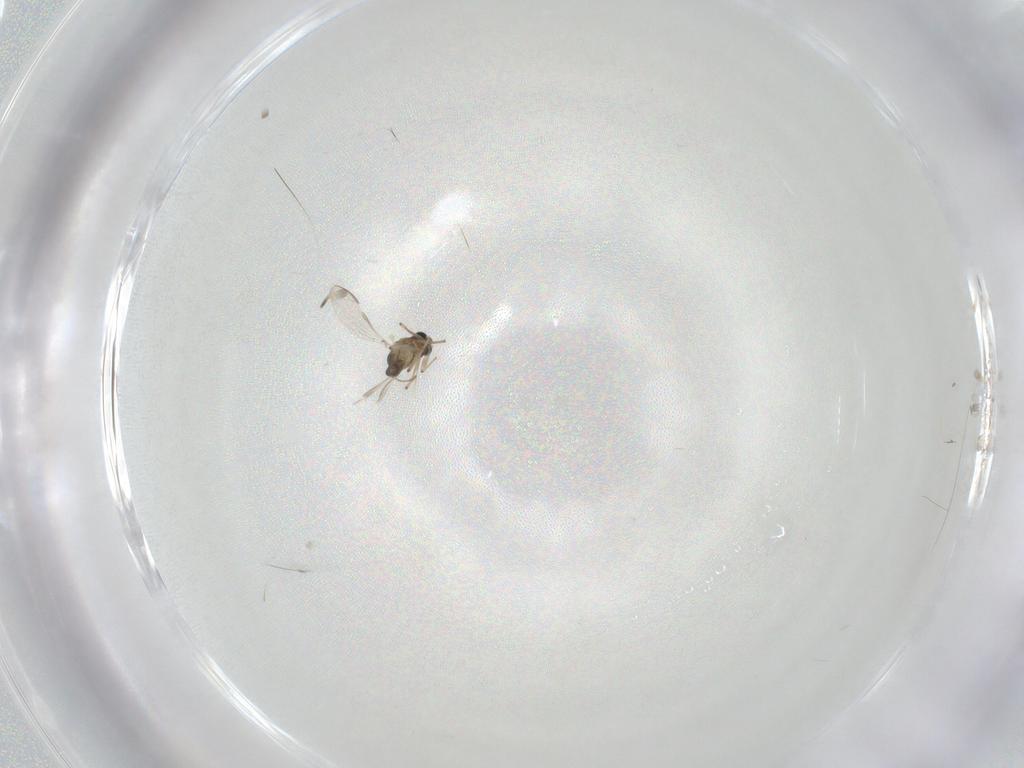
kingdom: Animalia
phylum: Arthropoda
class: Insecta
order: Diptera
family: Chironomidae
